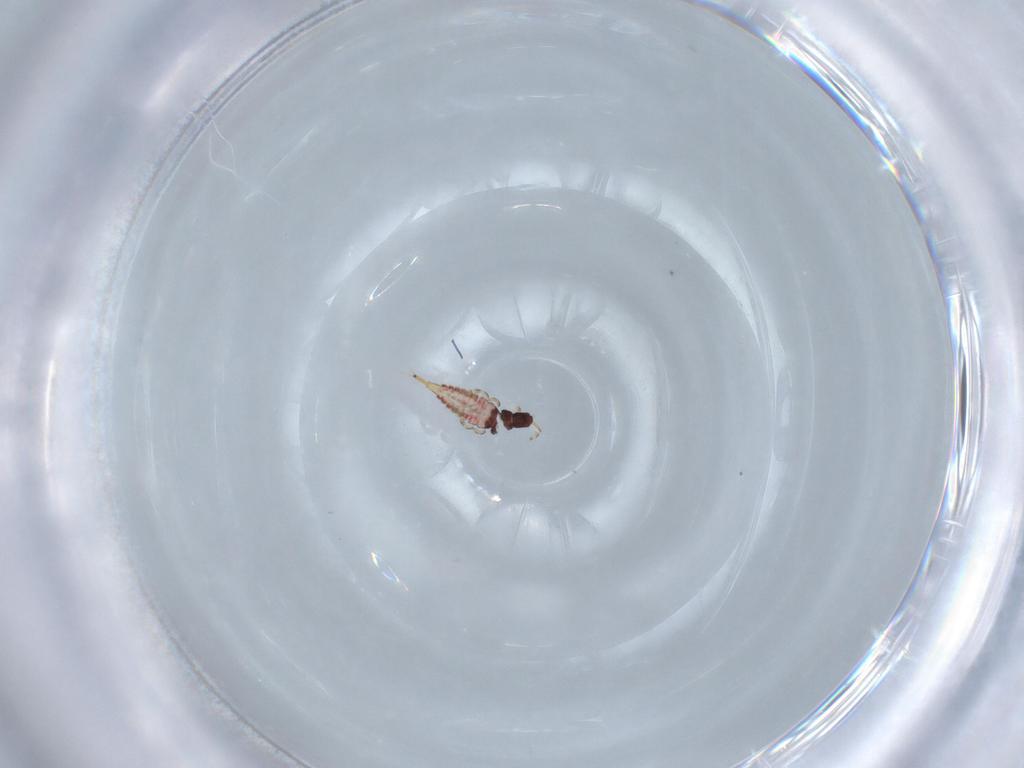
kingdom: Animalia
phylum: Arthropoda
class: Insecta
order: Thysanoptera
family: Phlaeothripidae
